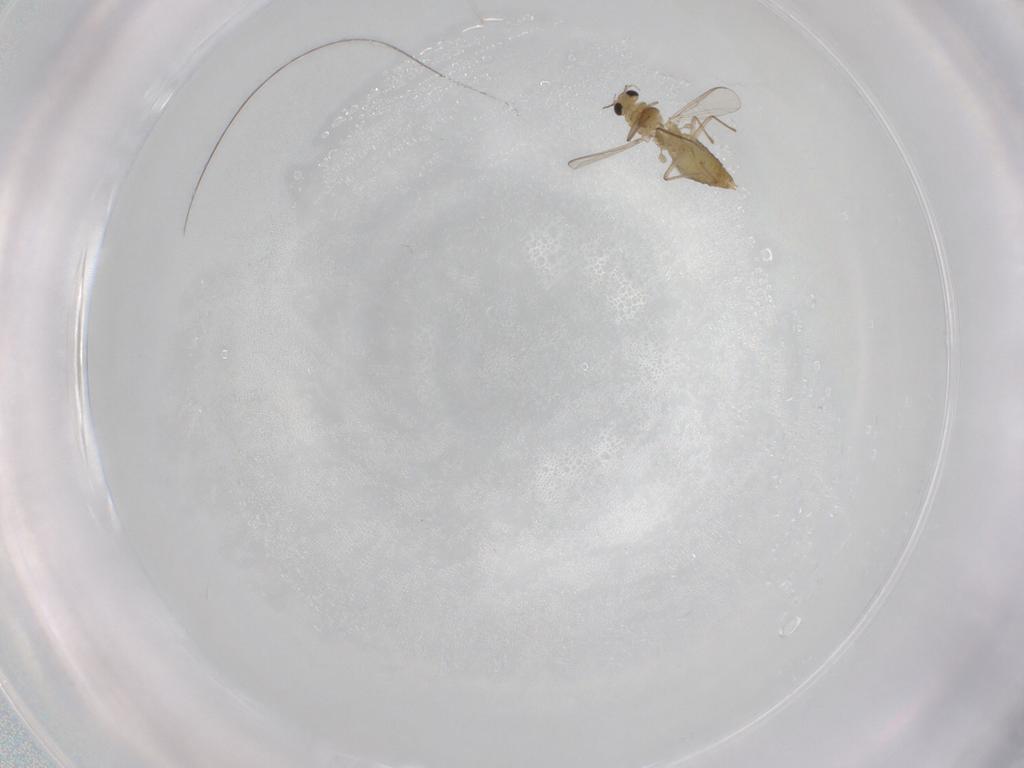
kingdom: Animalia
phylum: Arthropoda
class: Insecta
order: Diptera
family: Chironomidae
